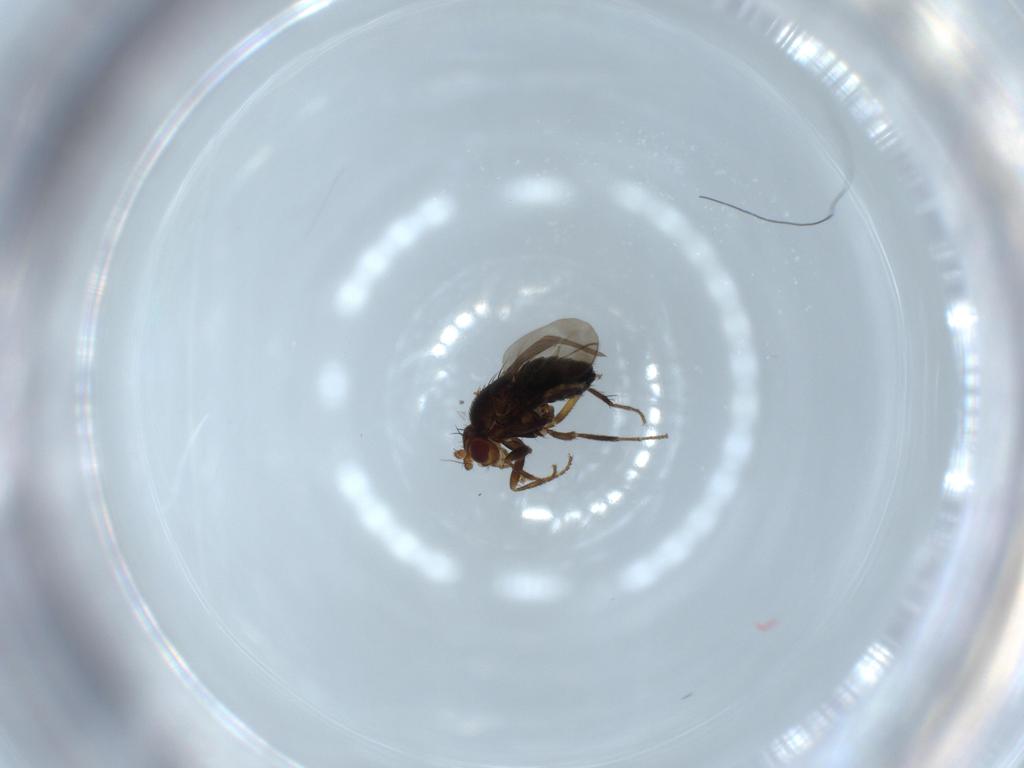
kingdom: Animalia
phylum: Arthropoda
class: Insecta
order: Diptera
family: Sphaeroceridae
